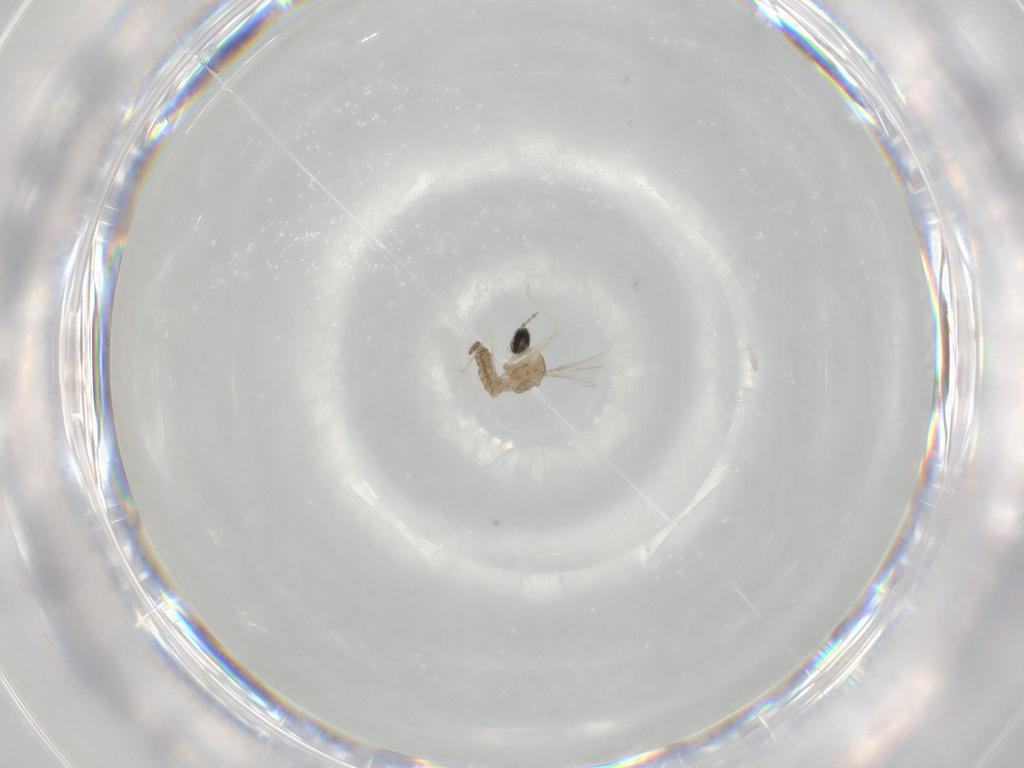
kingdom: Animalia
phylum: Arthropoda
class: Insecta
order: Diptera
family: Cecidomyiidae
